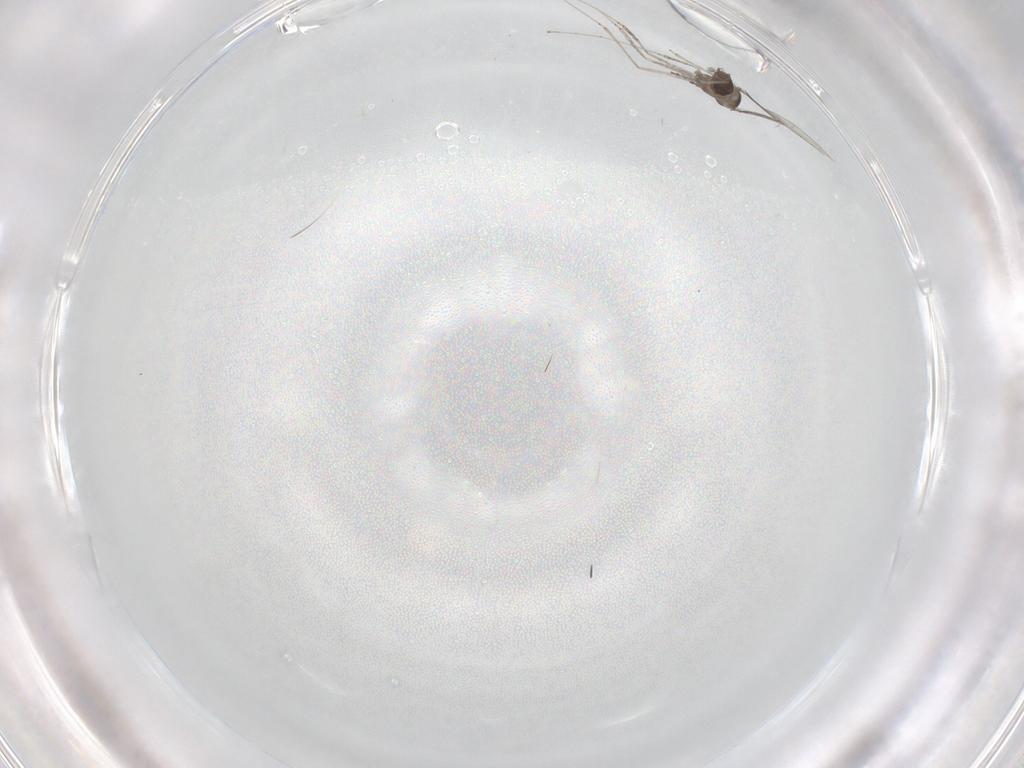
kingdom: Animalia
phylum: Arthropoda
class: Insecta
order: Diptera
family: Cecidomyiidae
